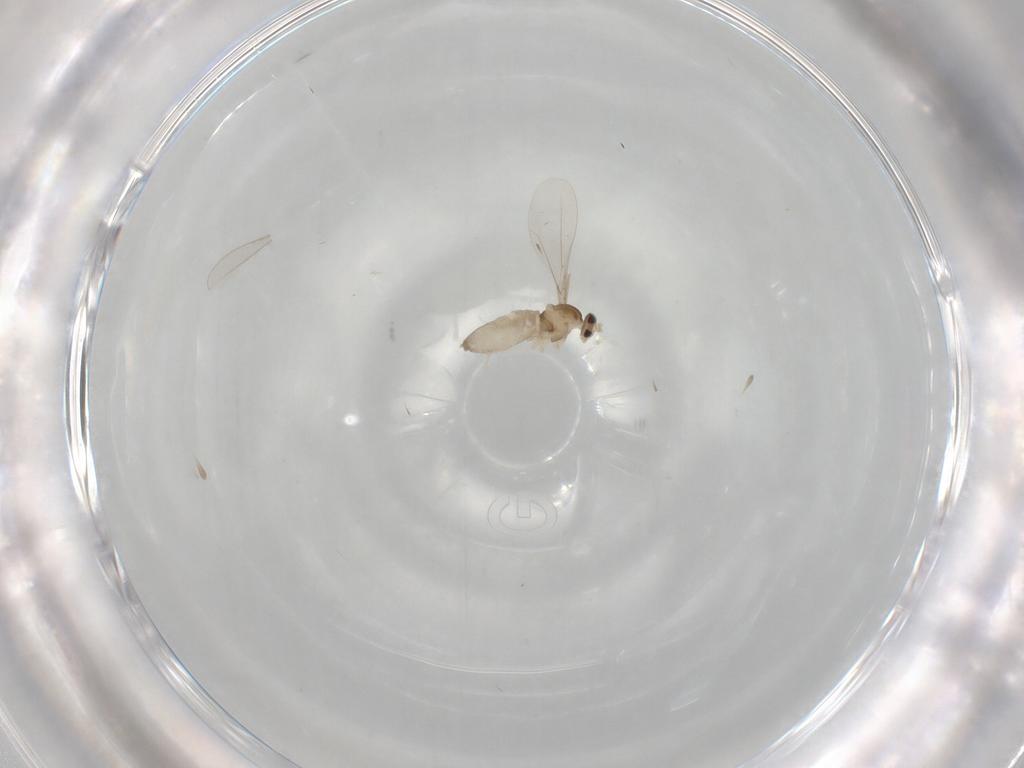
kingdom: Animalia
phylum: Arthropoda
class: Insecta
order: Diptera
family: Cecidomyiidae
